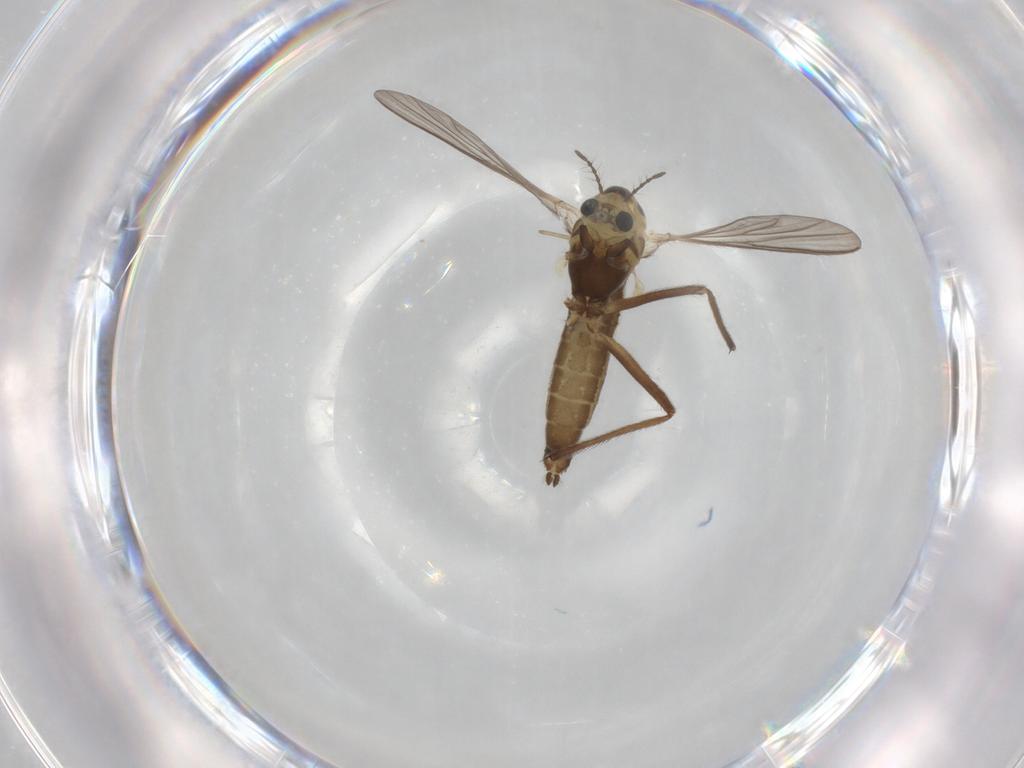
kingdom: Animalia
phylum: Arthropoda
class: Insecta
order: Diptera
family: Chironomidae
